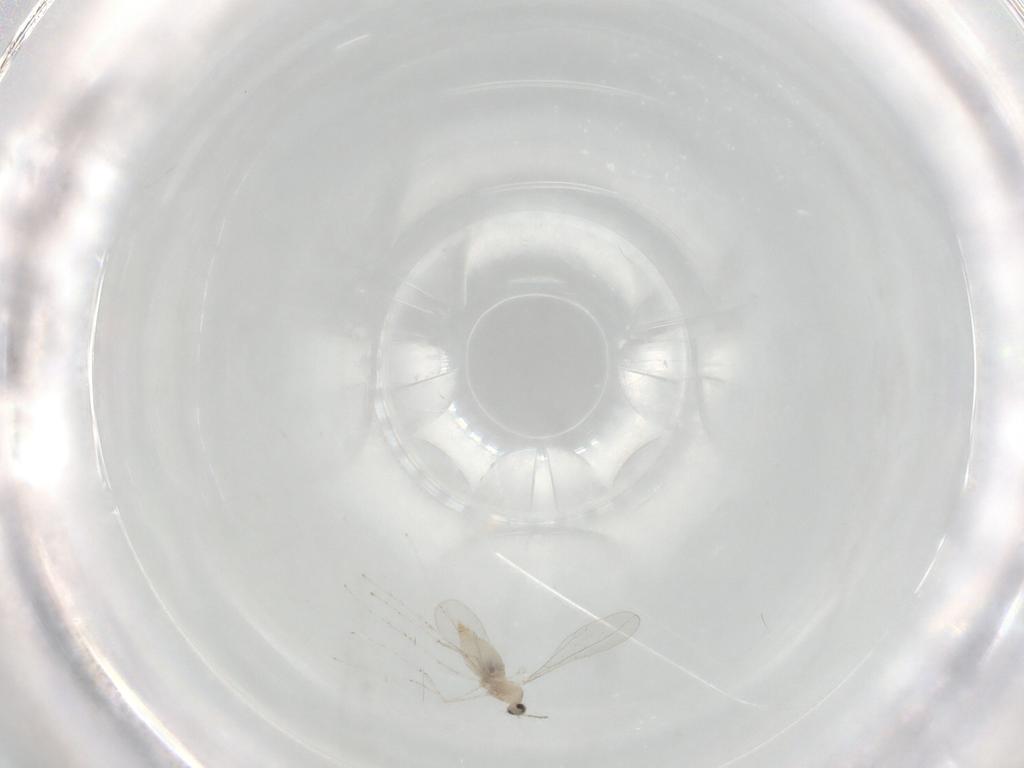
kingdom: Animalia
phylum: Arthropoda
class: Insecta
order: Diptera
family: Cecidomyiidae
